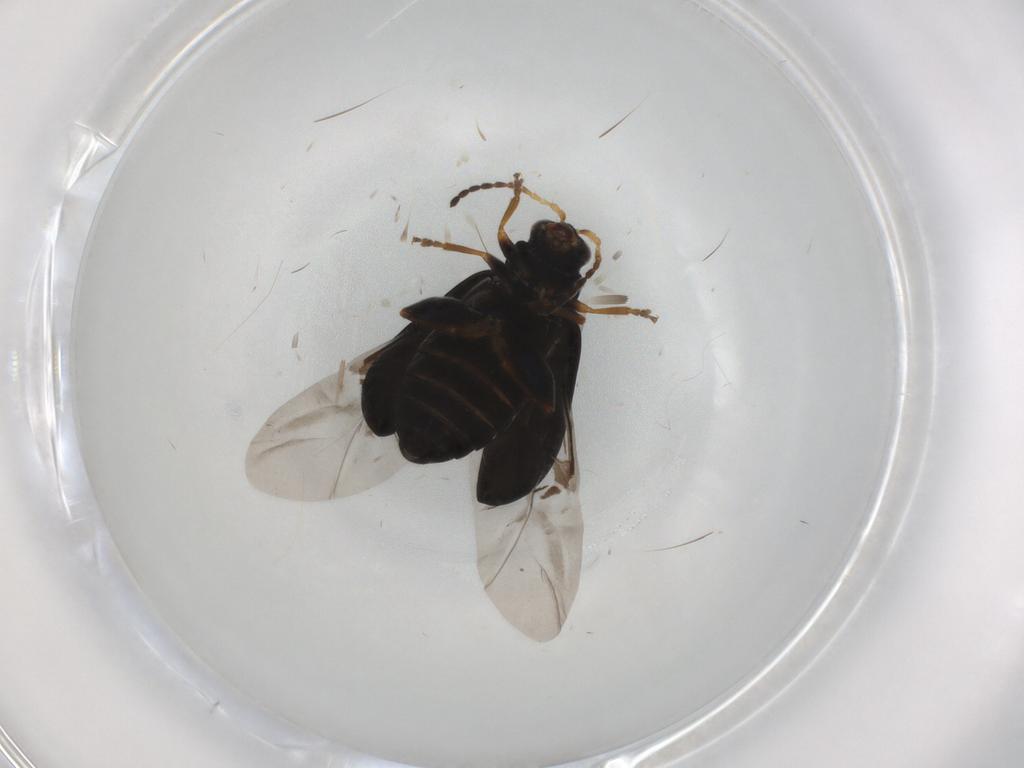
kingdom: Animalia
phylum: Arthropoda
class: Insecta
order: Coleoptera
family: Chrysomelidae
